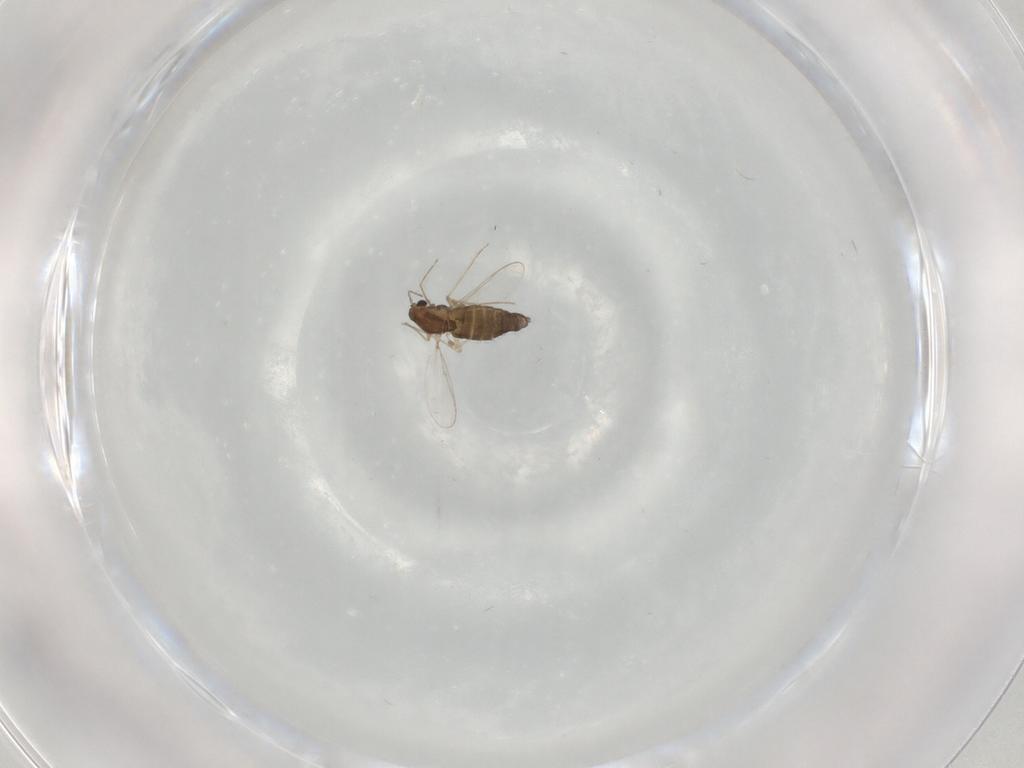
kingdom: Animalia
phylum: Arthropoda
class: Insecta
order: Diptera
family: Chironomidae
